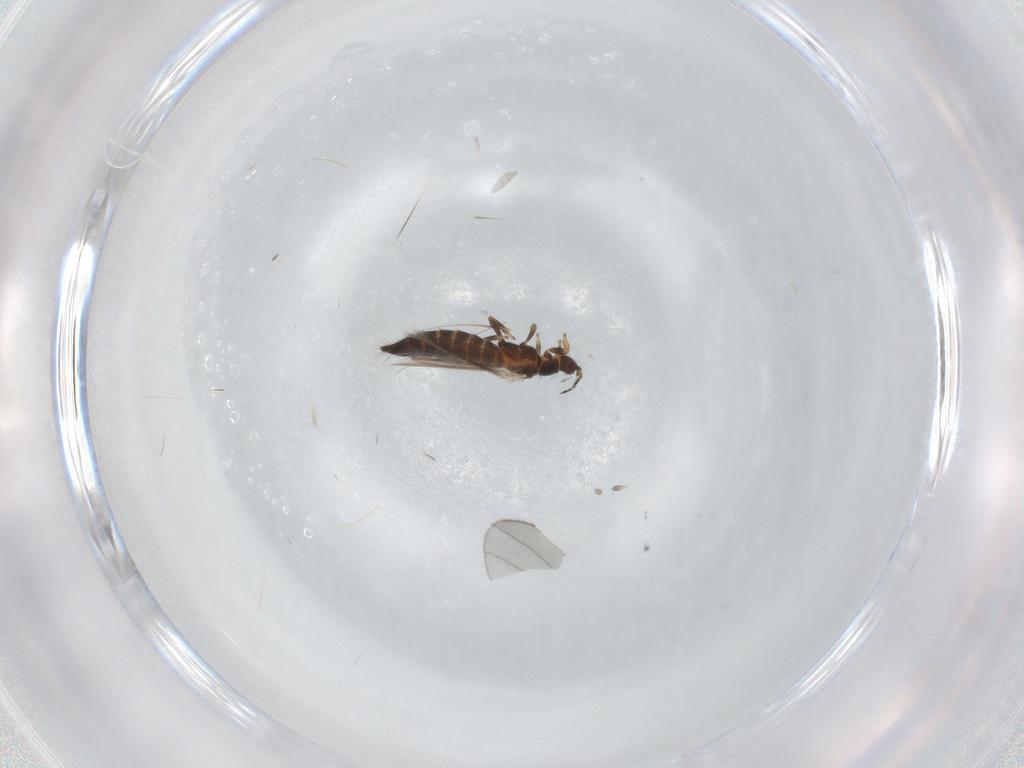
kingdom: Animalia
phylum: Arthropoda
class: Insecta
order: Thysanoptera
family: Thripidae
